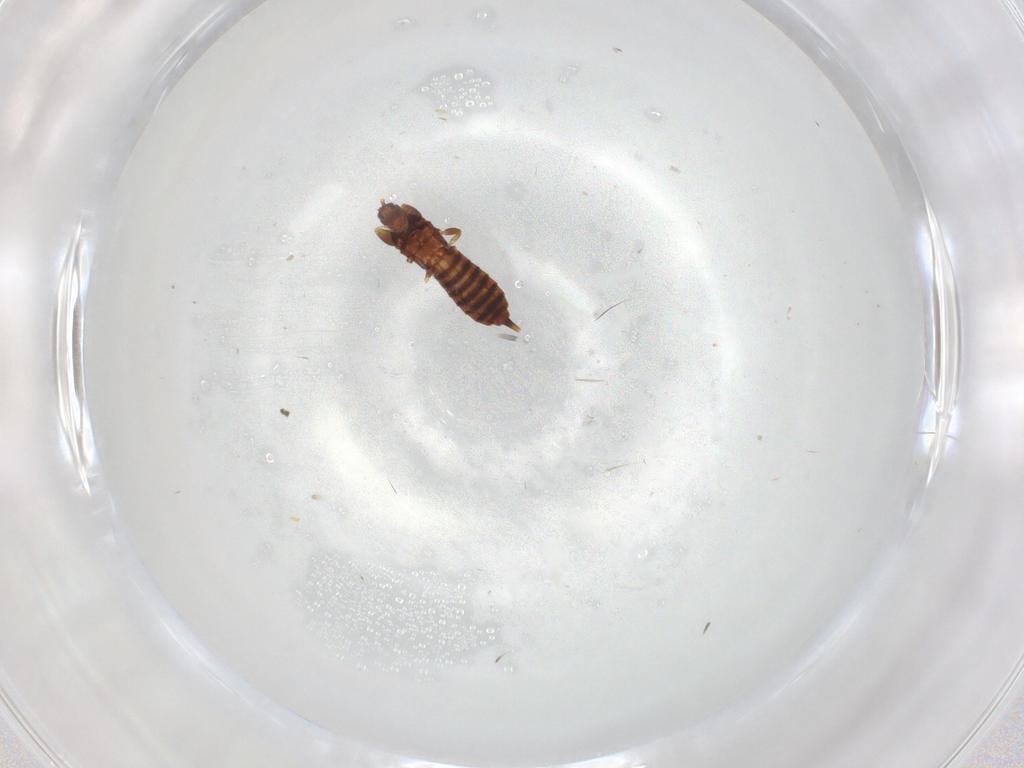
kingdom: Animalia
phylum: Arthropoda
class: Insecta
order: Thysanoptera
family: Phlaeothripidae
